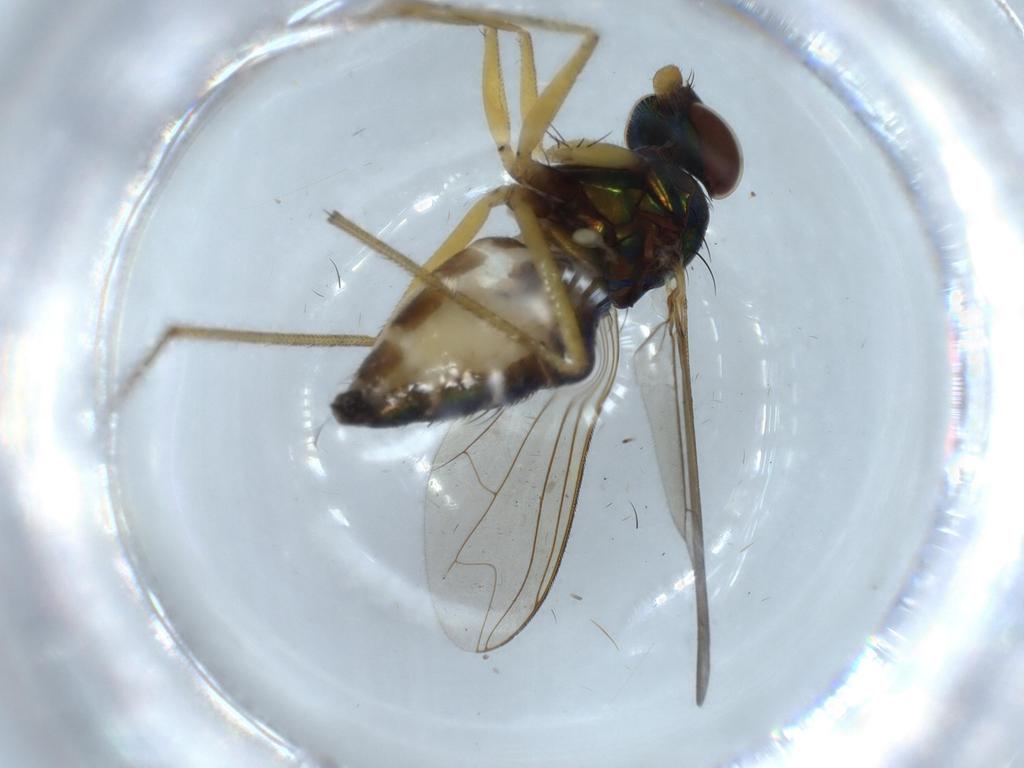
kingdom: Animalia
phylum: Arthropoda
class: Insecta
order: Diptera
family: Dolichopodidae
